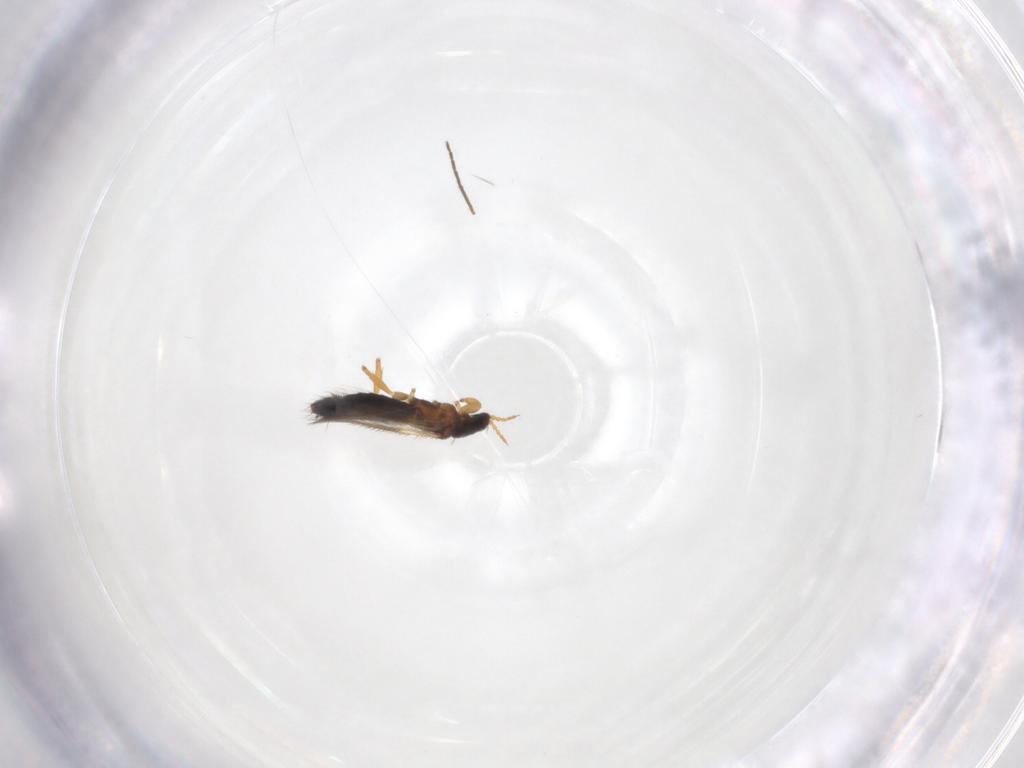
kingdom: Animalia
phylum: Arthropoda
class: Insecta
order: Thysanoptera
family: Thripidae
